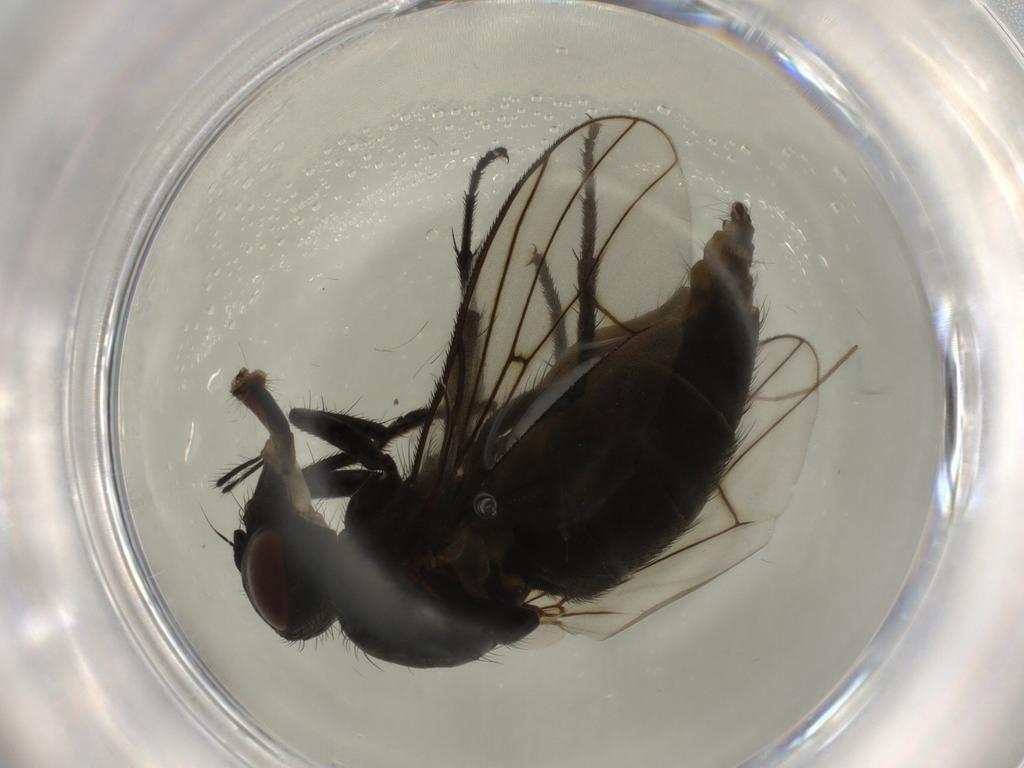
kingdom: Animalia
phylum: Arthropoda
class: Insecta
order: Diptera
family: Muscidae
